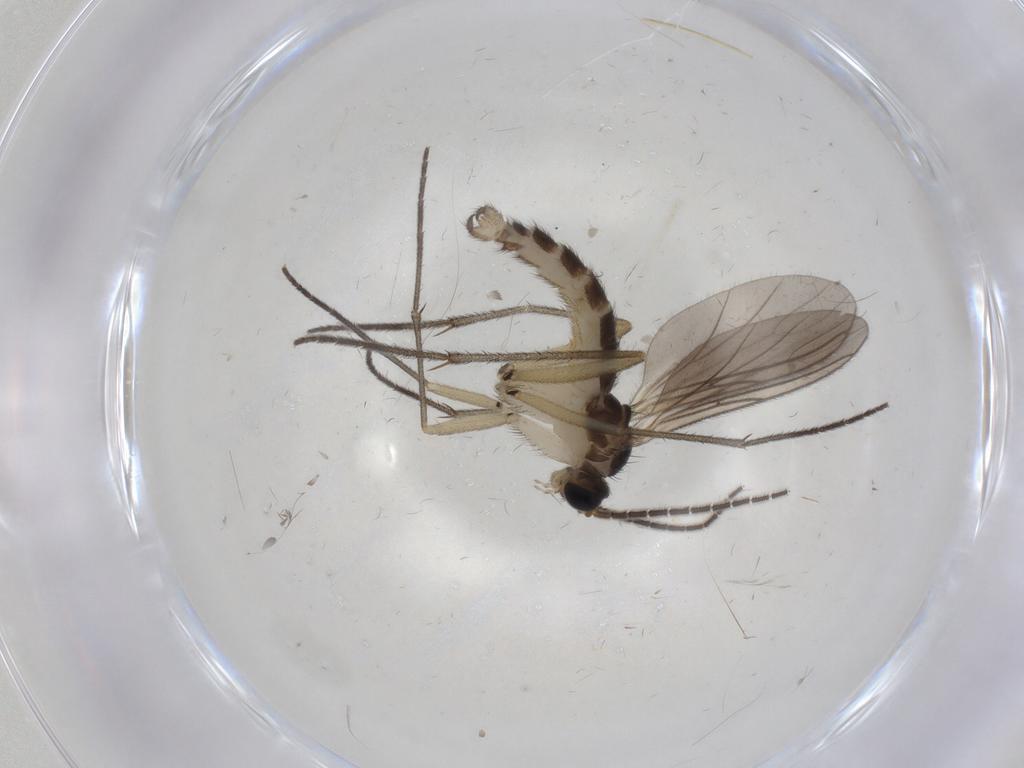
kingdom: Animalia
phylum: Arthropoda
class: Insecta
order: Diptera
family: Sciaridae
